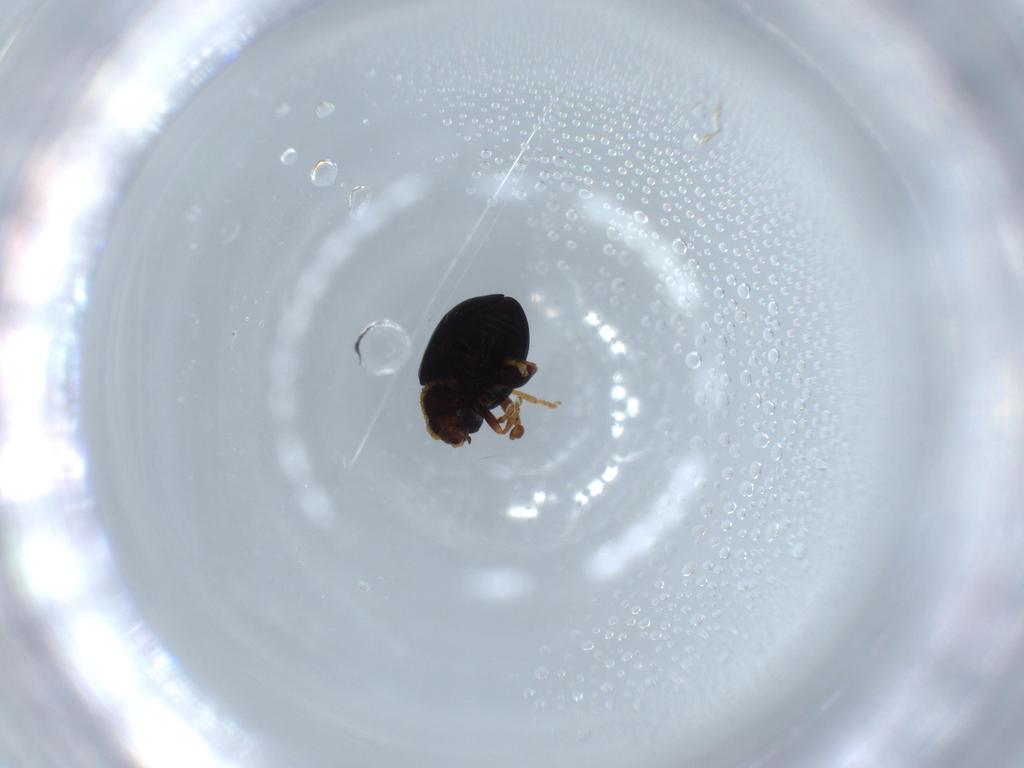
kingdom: Animalia
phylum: Arthropoda
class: Insecta
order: Coleoptera
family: Chrysomelidae
